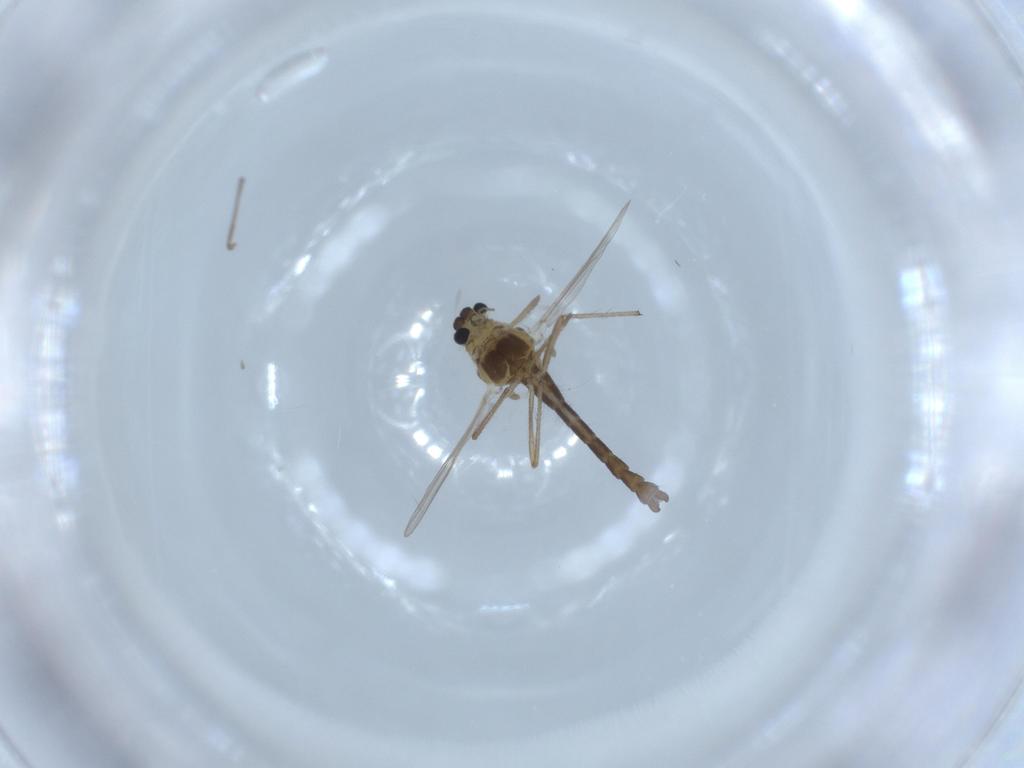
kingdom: Animalia
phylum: Arthropoda
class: Insecta
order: Diptera
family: Chironomidae
